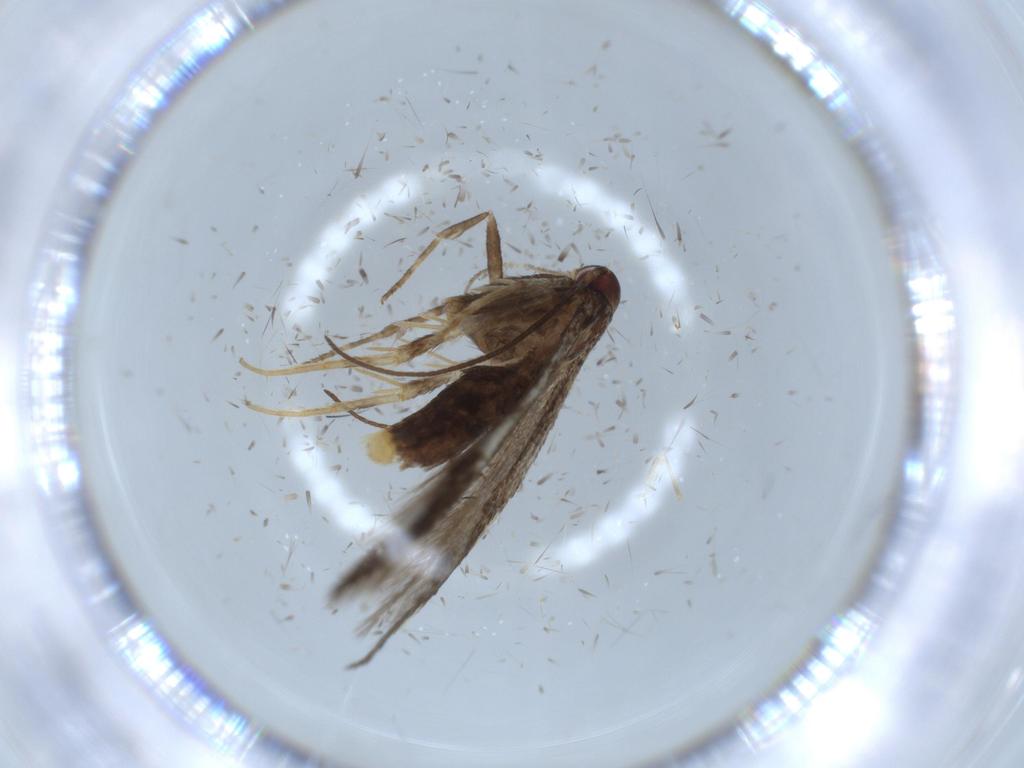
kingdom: Animalia
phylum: Arthropoda
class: Insecta
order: Lepidoptera
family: Cosmopterigidae
